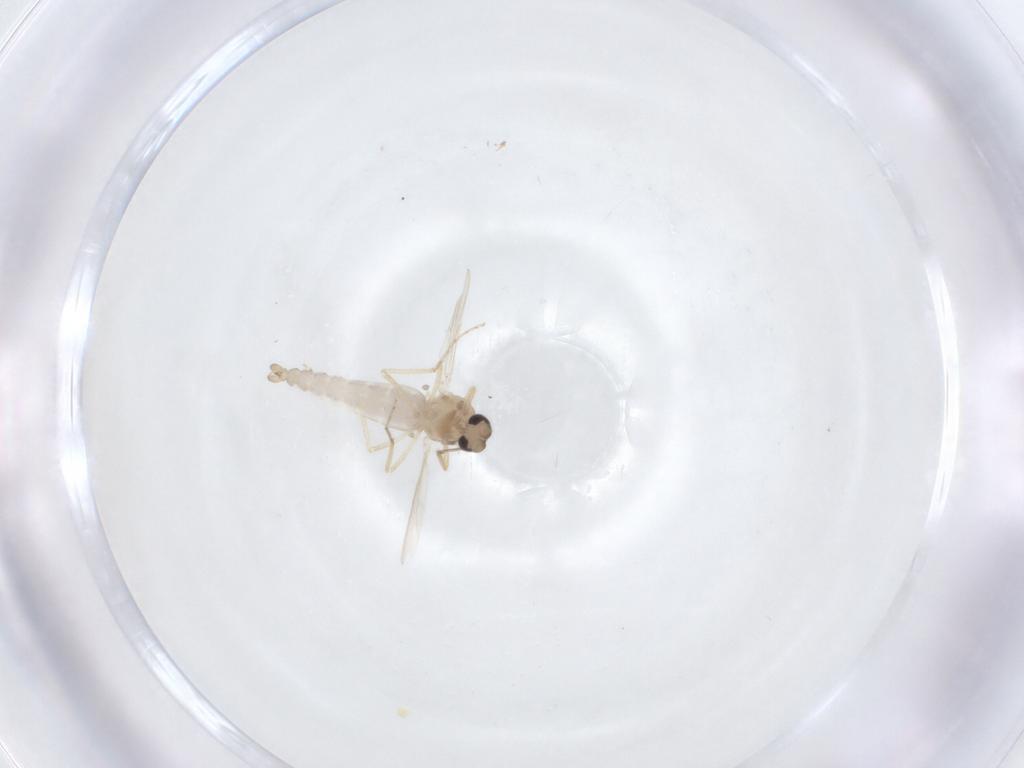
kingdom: Animalia
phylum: Arthropoda
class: Insecta
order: Diptera
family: Ceratopogonidae
